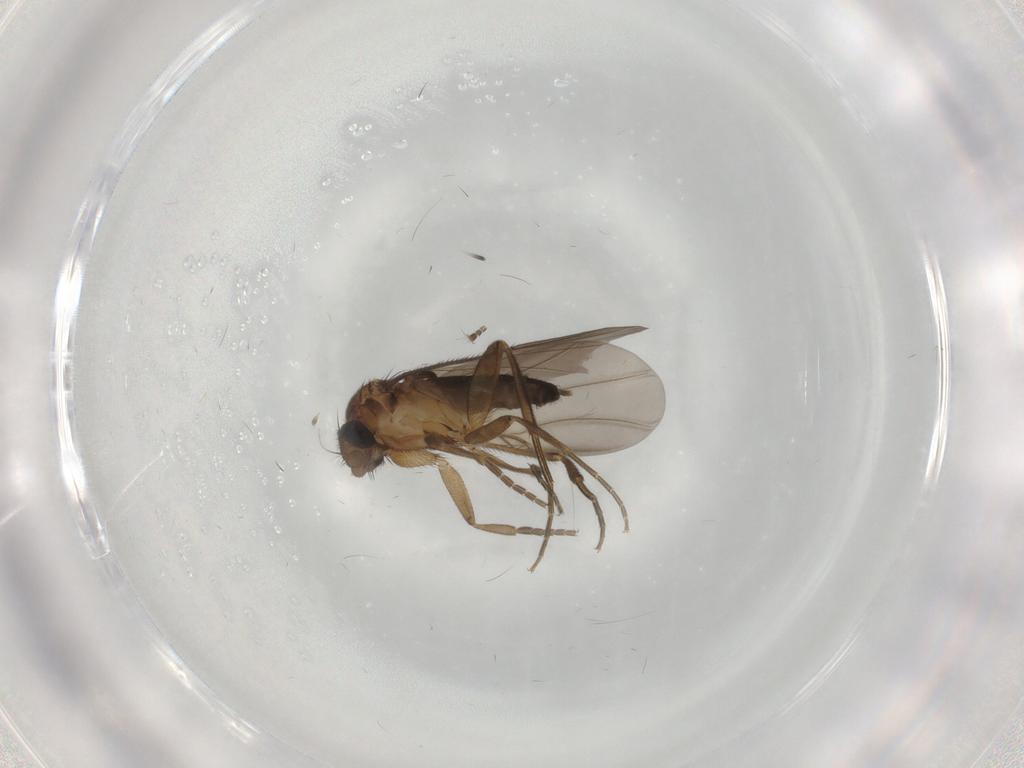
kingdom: Animalia
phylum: Arthropoda
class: Insecta
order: Diptera
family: Phoridae
